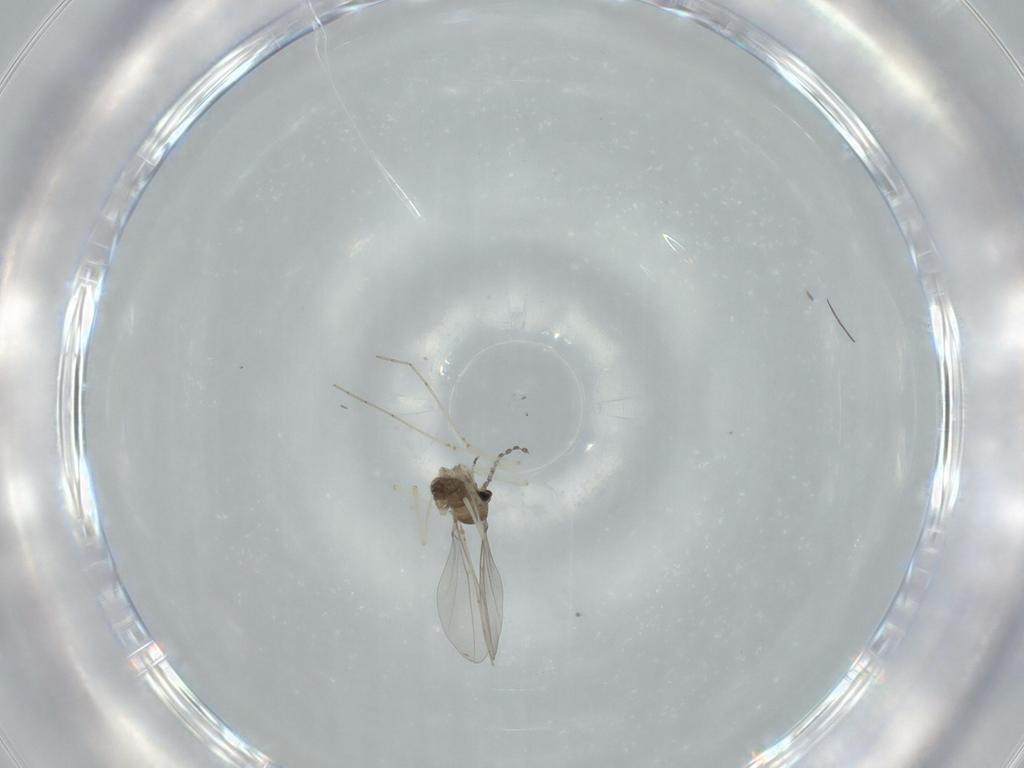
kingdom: Animalia
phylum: Arthropoda
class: Insecta
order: Diptera
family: Cecidomyiidae
